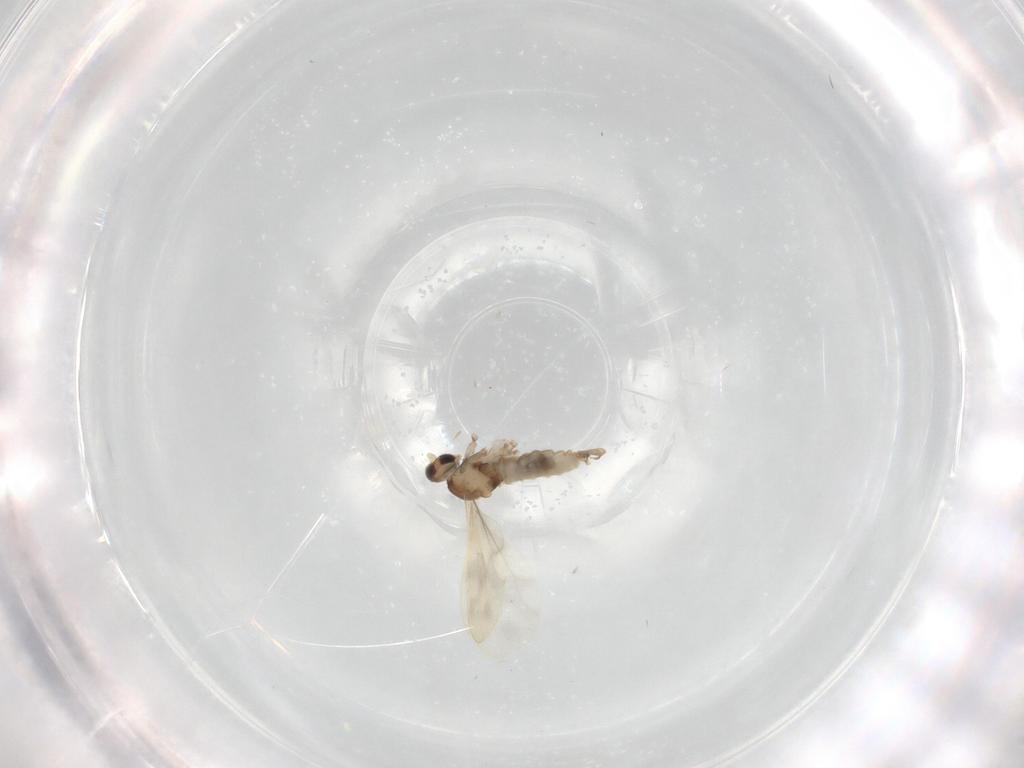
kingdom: Animalia
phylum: Arthropoda
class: Insecta
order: Diptera
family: Cecidomyiidae
